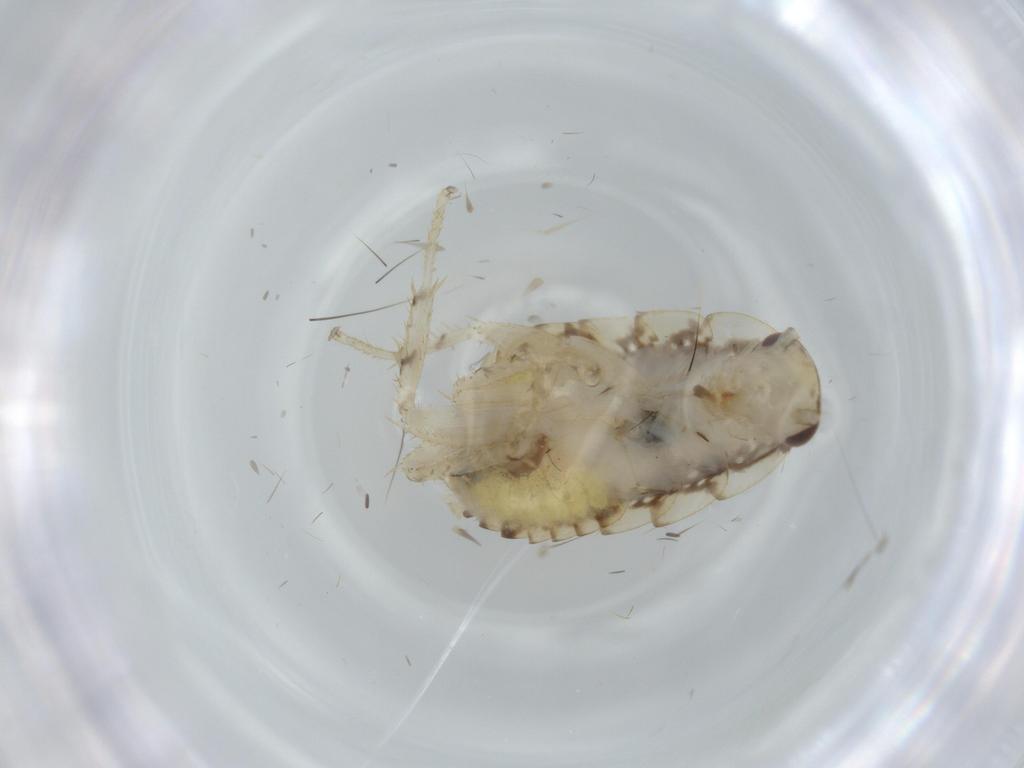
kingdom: Animalia
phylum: Arthropoda
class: Insecta
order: Blattodea
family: Ectobiidae
